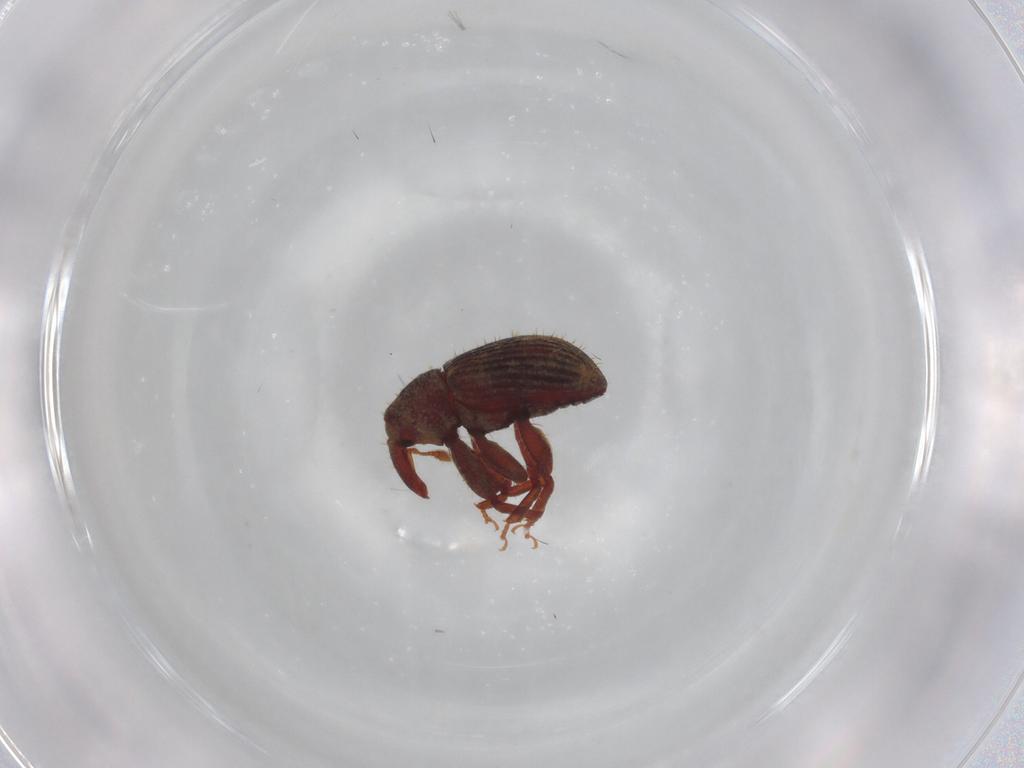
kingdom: Animalia
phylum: Arthropoda
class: Insecta
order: Coleoptera
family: Curculionidae
